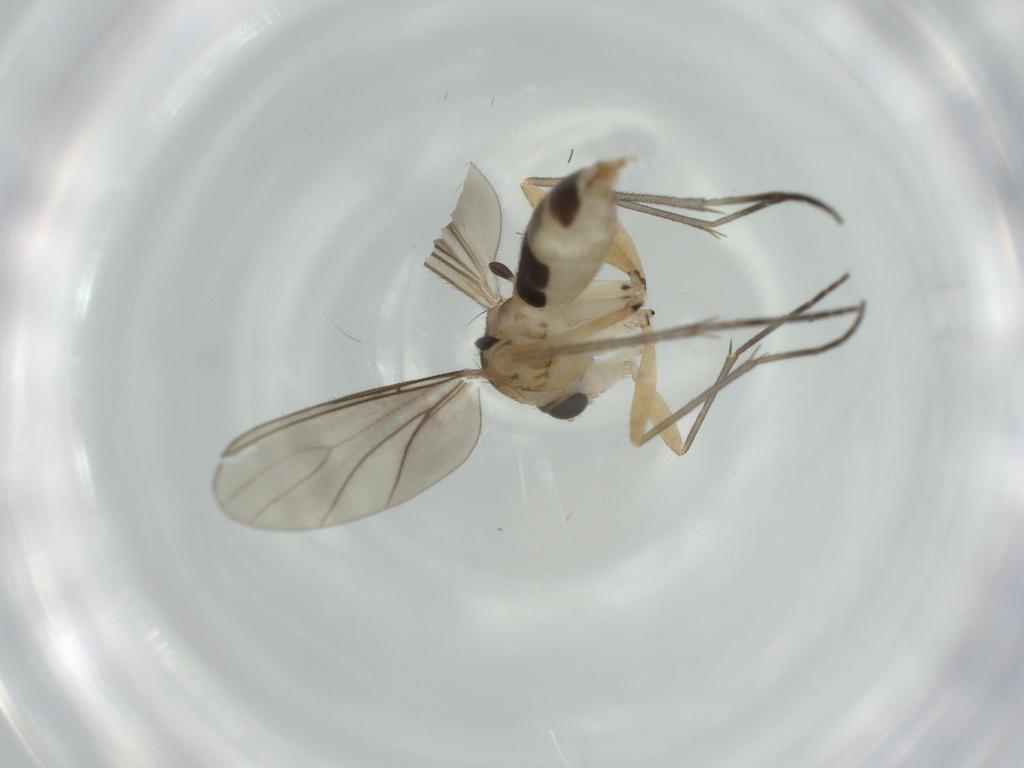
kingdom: Animalia
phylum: Arthropoda
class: Insecta
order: Diptera
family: Sciaridae
